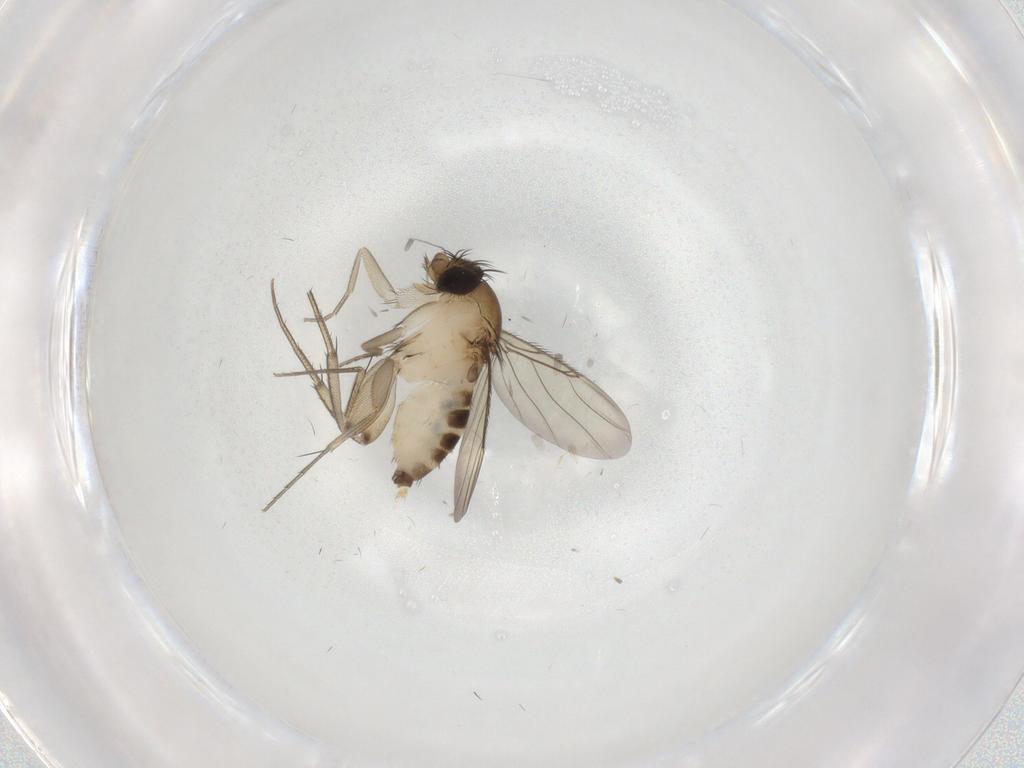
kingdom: Animalia
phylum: Arthropoda
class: Insecta
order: Diptera
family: Phoridae
